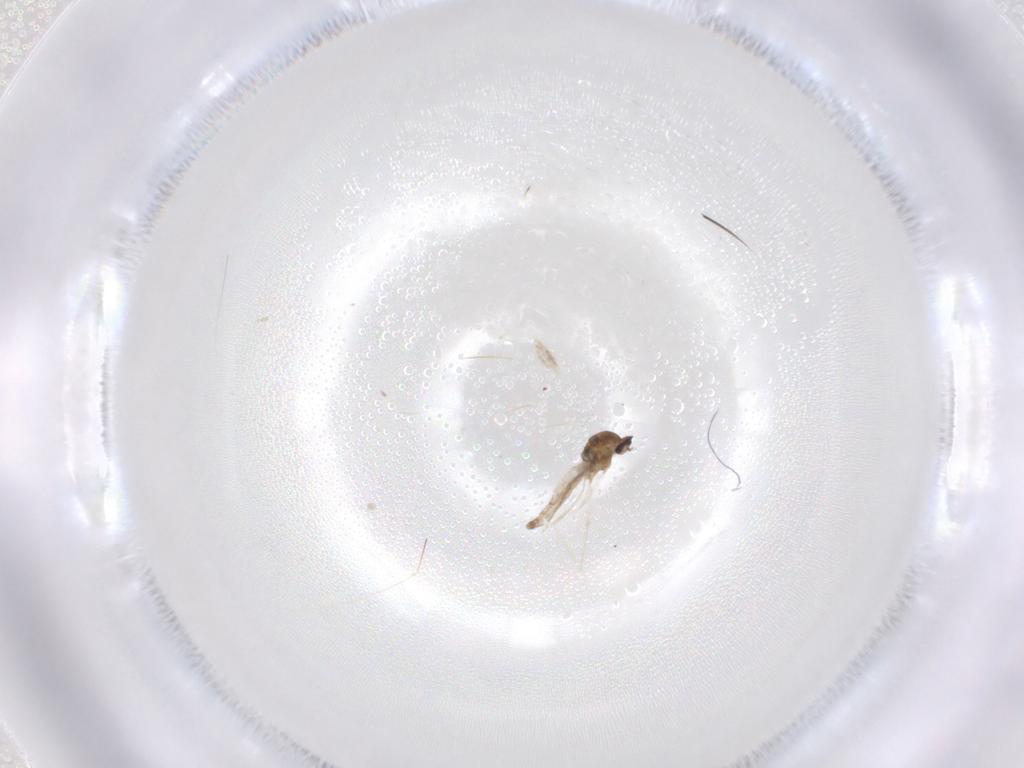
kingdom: Animalia
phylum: Arthropoda
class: Insecta
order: Diptera
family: Cecidomyiidae
